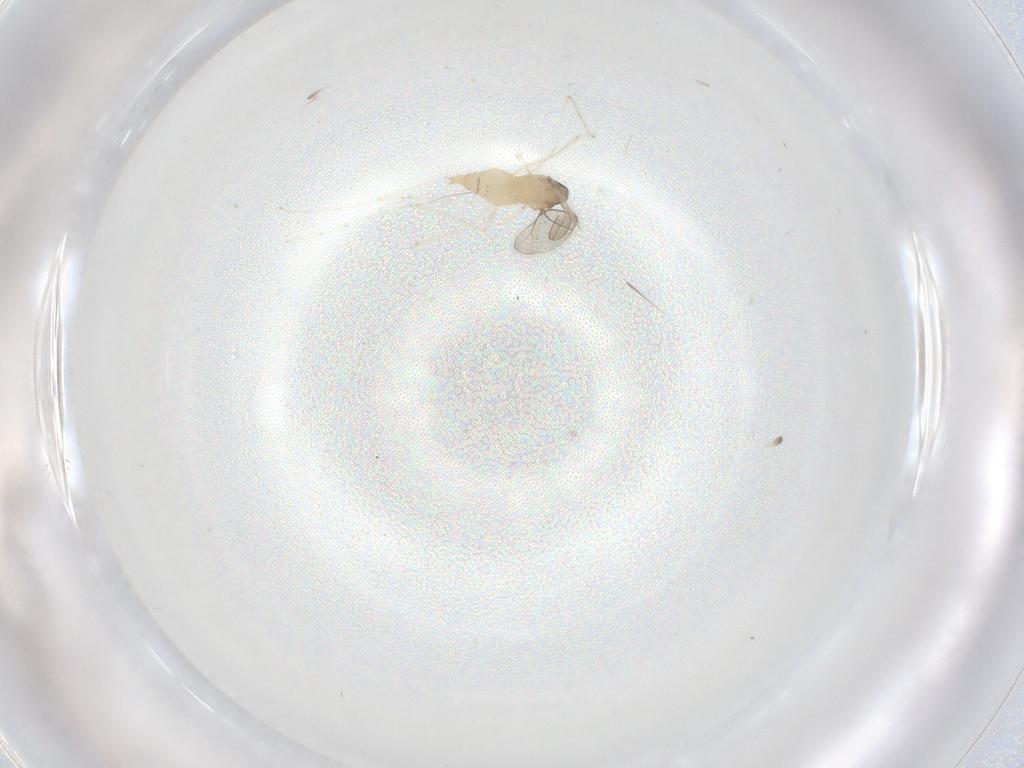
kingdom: Animalia
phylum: Arthropoda
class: Insecta
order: Diptera
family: Cecidomyiidae
